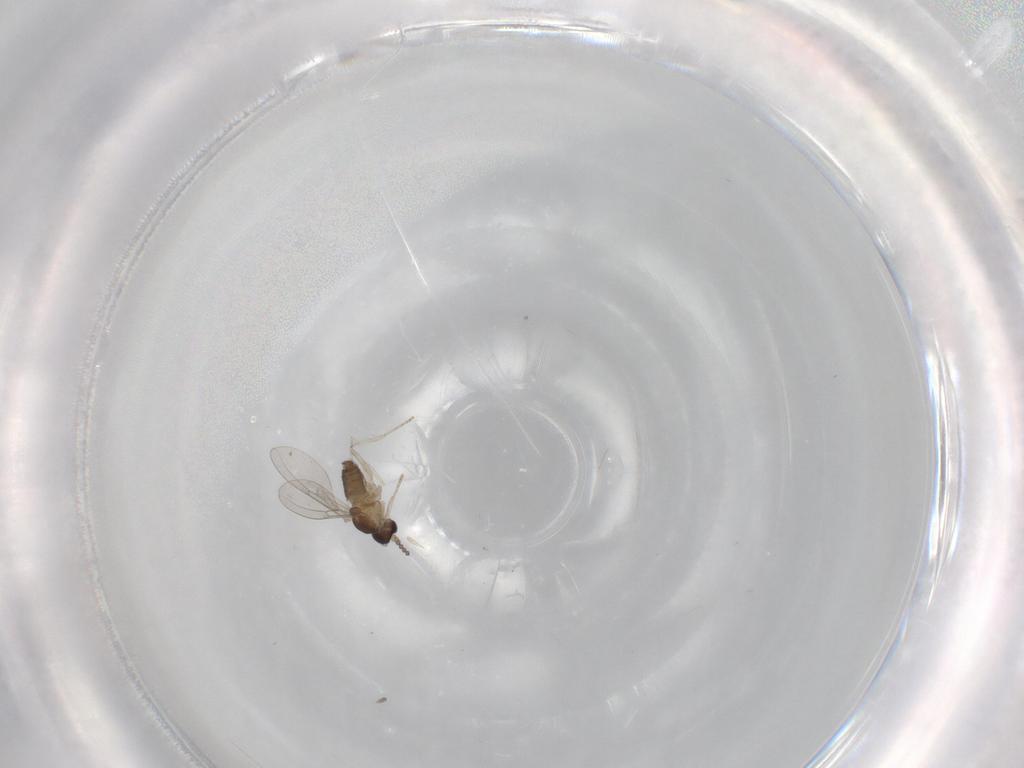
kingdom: Animalia
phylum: Arthropoda
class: Insecta
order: Diptera
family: Cecidomyiidae
